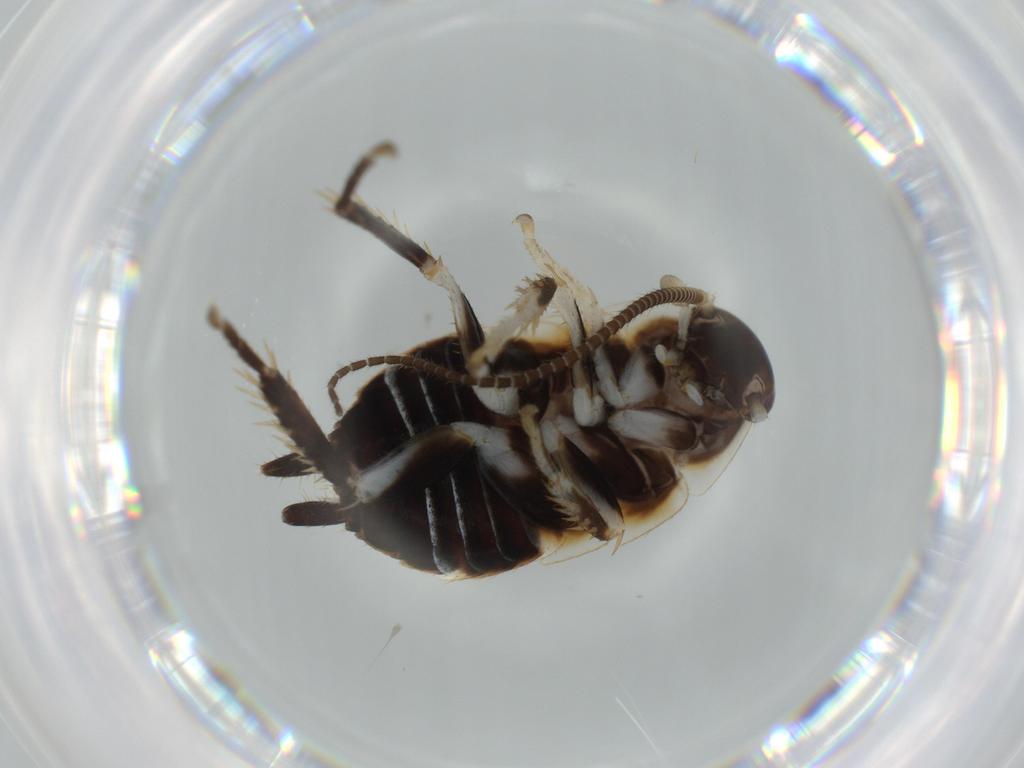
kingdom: Animalia
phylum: Arthropoda
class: Insecta
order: Blattodea
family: Ectobiidae
